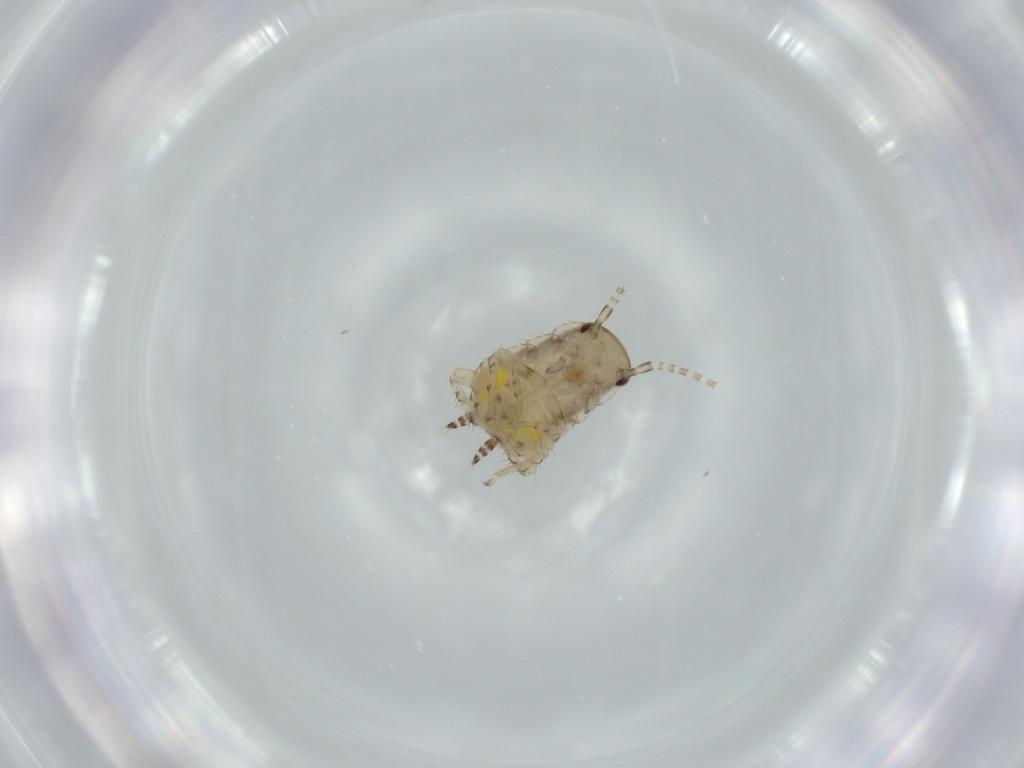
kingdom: Animalia
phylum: Arthropoda
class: Insecta
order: Blattodea
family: Ectobiidae
